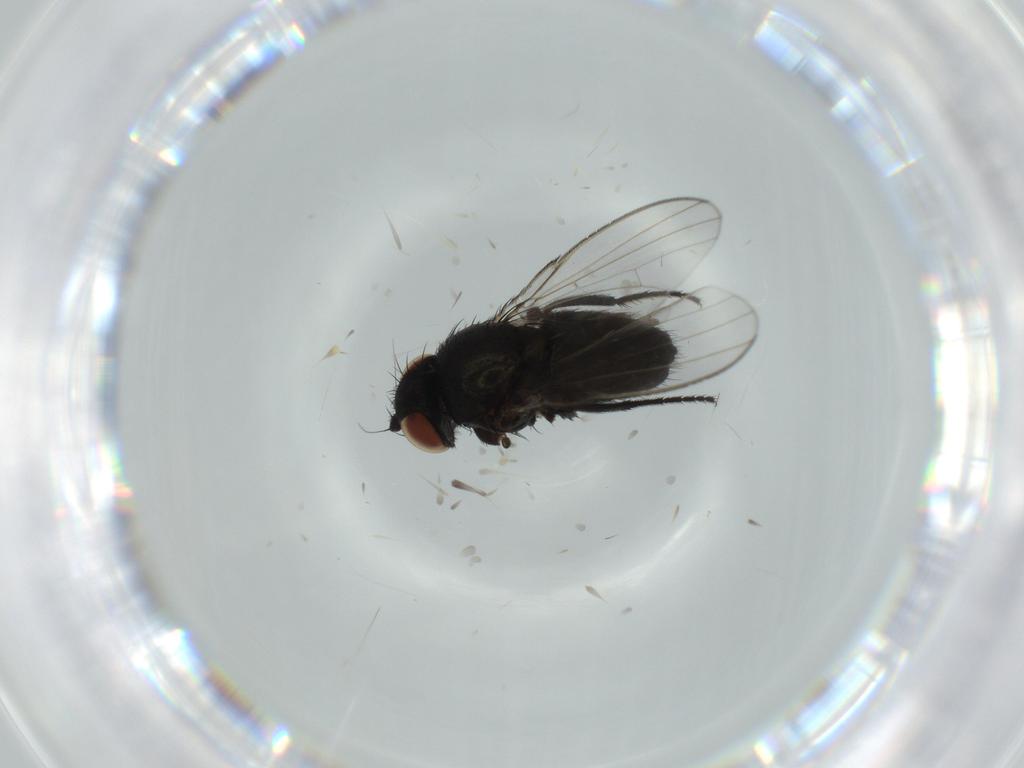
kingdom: Animalia
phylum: Arthropoda
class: Insecta
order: Diptera
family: Milichiidae
